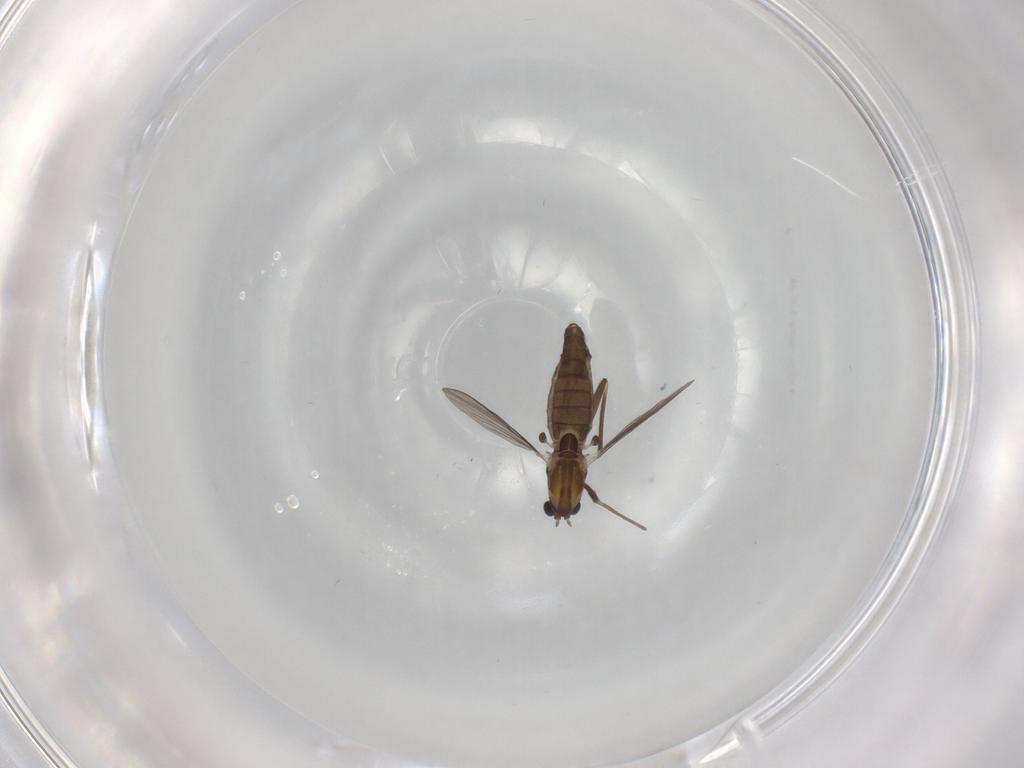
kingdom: Animalia
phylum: Arthropoda
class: Insecta
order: Diptera
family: Chironomidae
